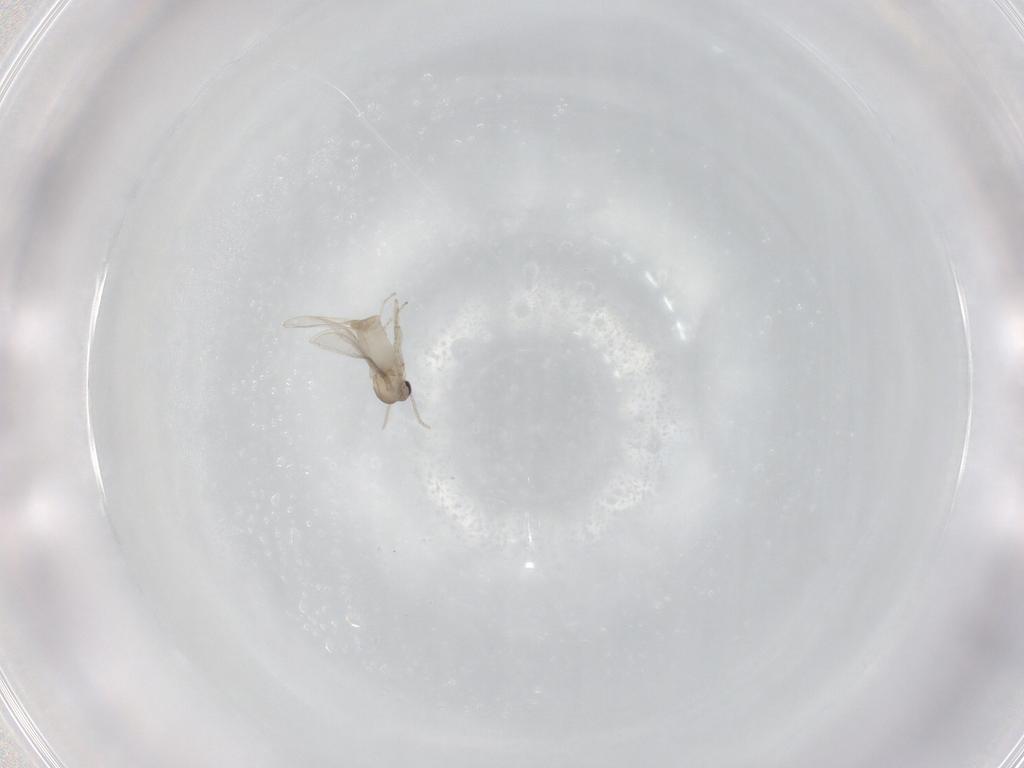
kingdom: Animalia
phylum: Arthropoda
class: Insecta
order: Diptera
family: Cecidomyiidae
